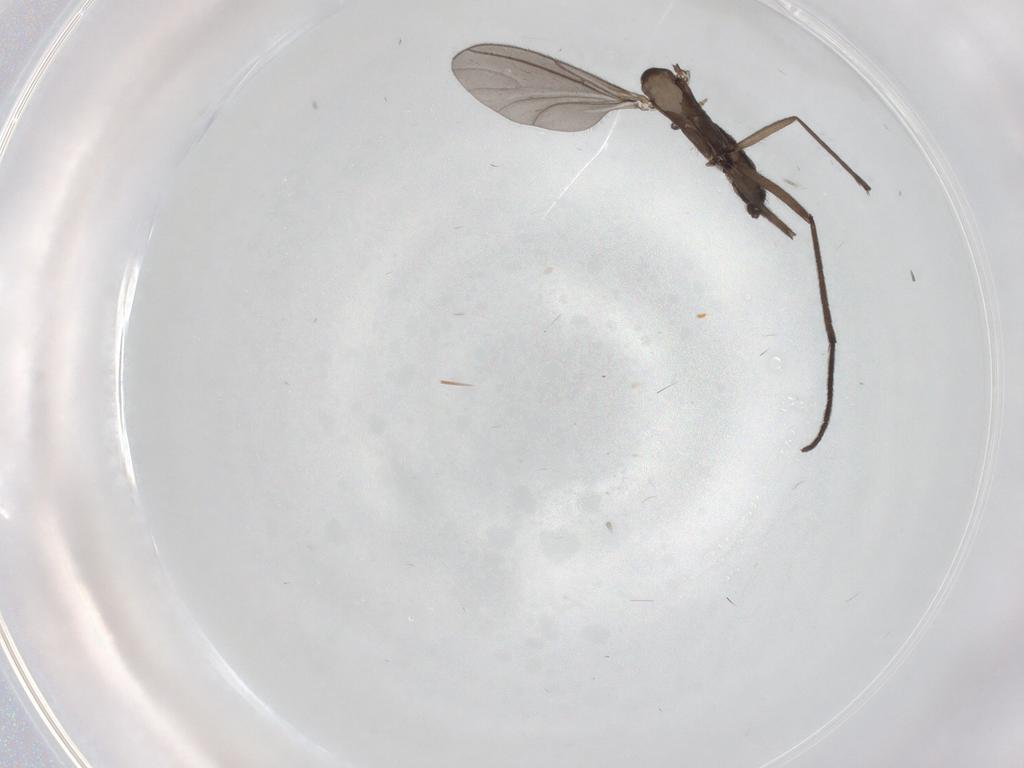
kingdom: Animalia
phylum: Arthropoda
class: Insecta
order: Diptera
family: Sciaridae
